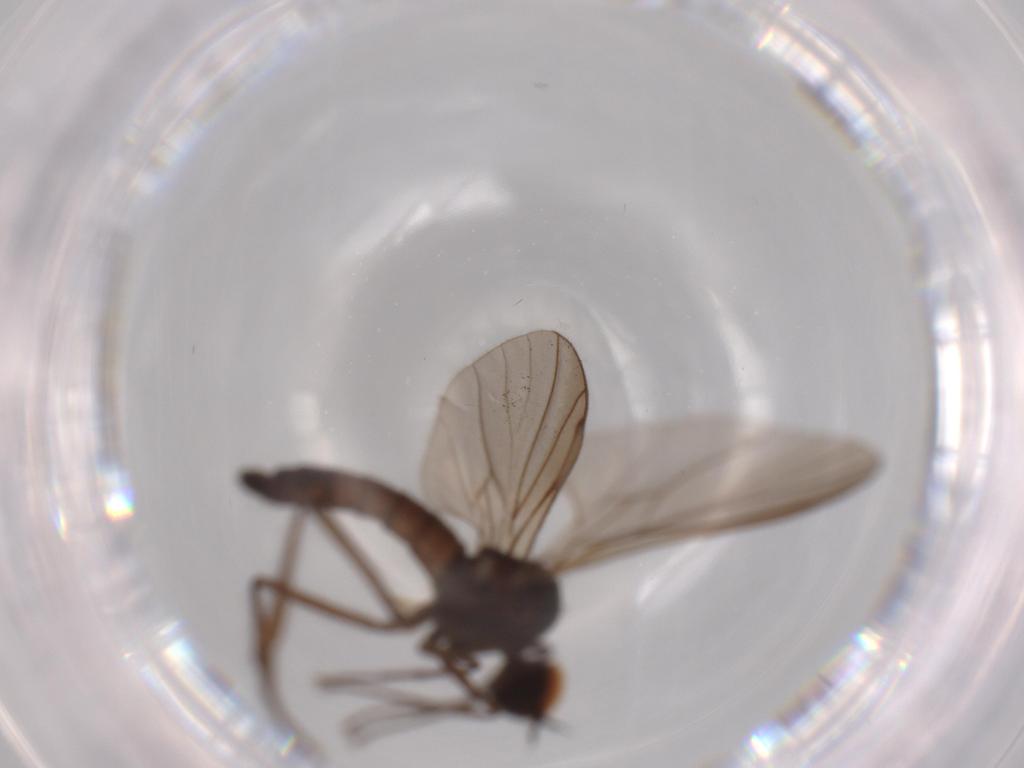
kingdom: Animalia
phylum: Arthropoda
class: Insecta
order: Diptera
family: Hybotidae
